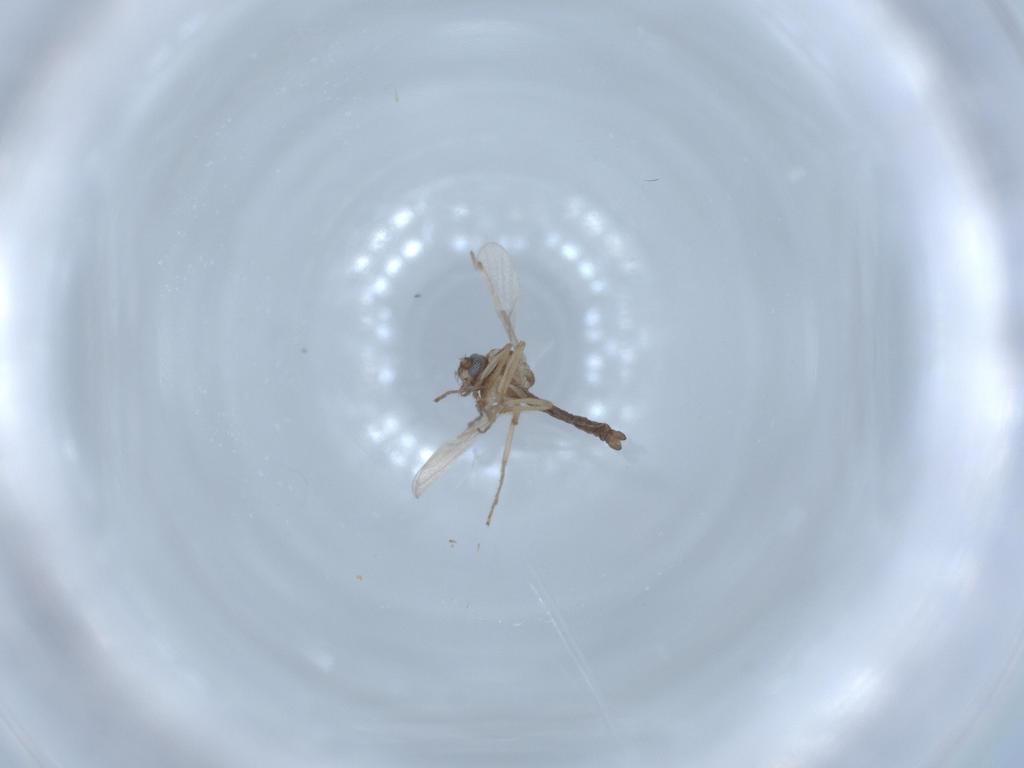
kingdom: Animalia
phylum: Arthropoda
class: Insecta
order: Diptera
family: Ceratopogonidae
